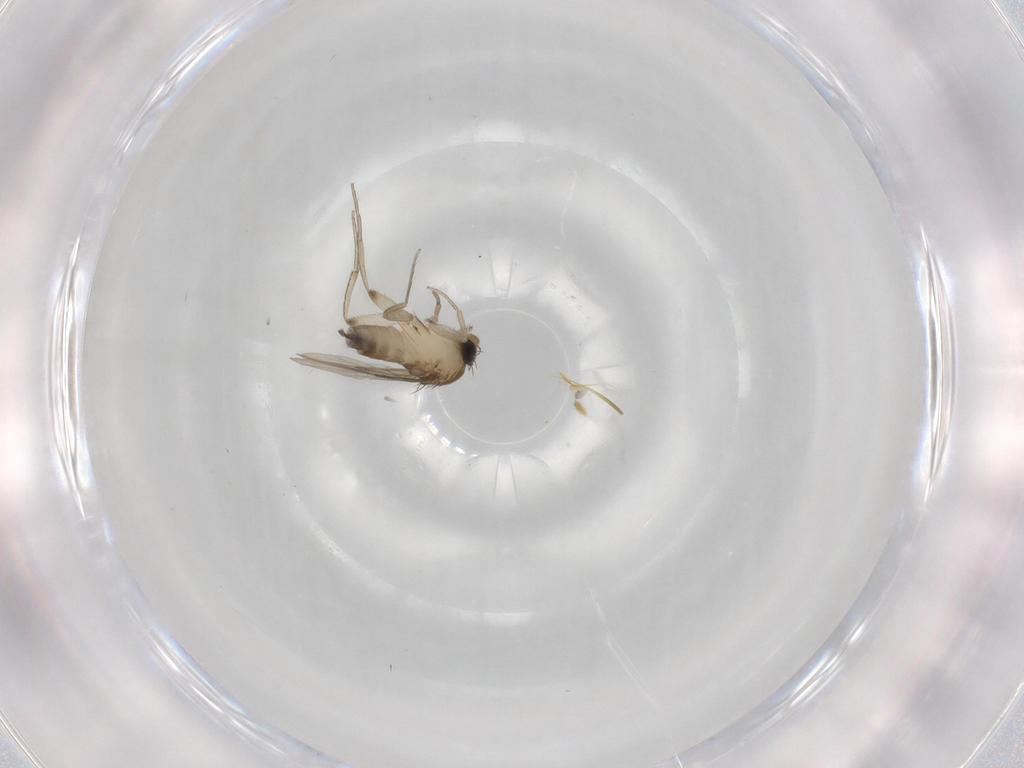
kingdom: Animalia
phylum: Arthropoda
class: Insecta
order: Diptera
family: Phoridae
